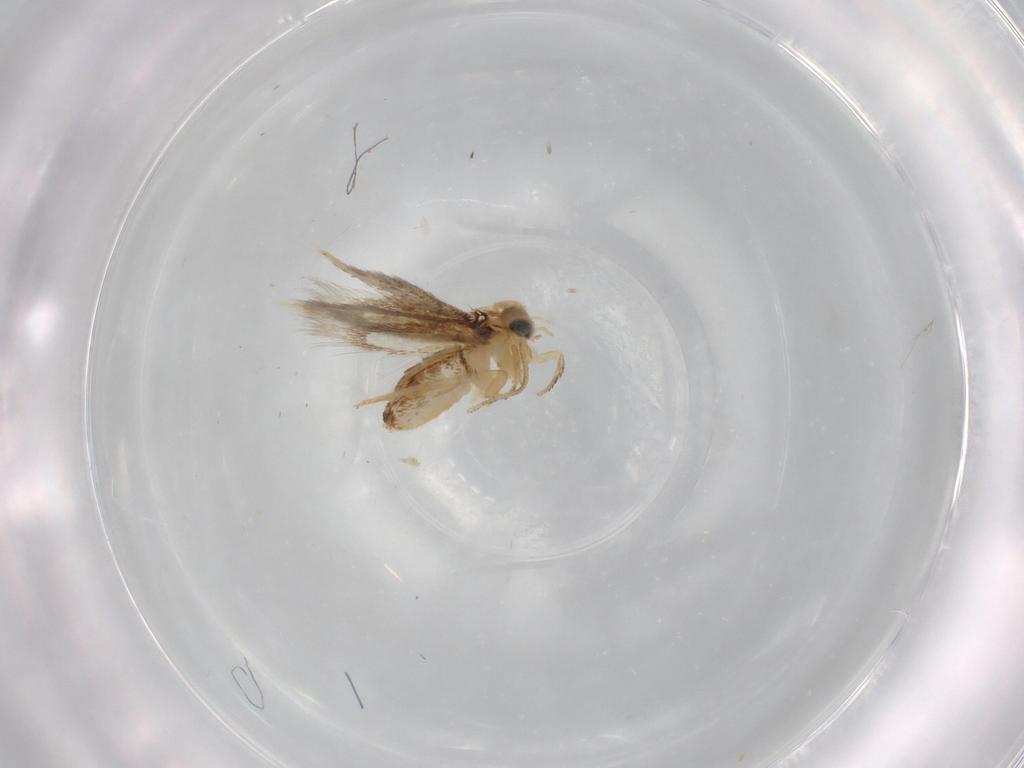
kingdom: Animalia
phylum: Arthropoda
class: Insecta
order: Lepidoptera
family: Nepticulidae
